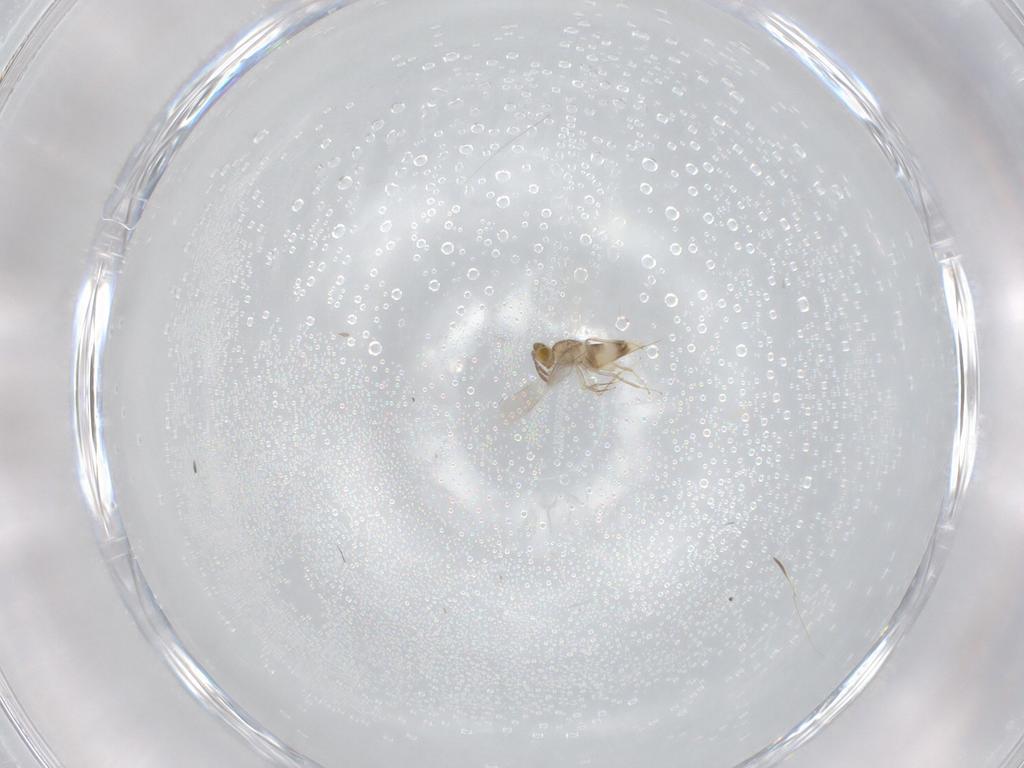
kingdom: Animalia
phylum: Arthropoda
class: Insecta
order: Hymenoptera
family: Aphelinidae
